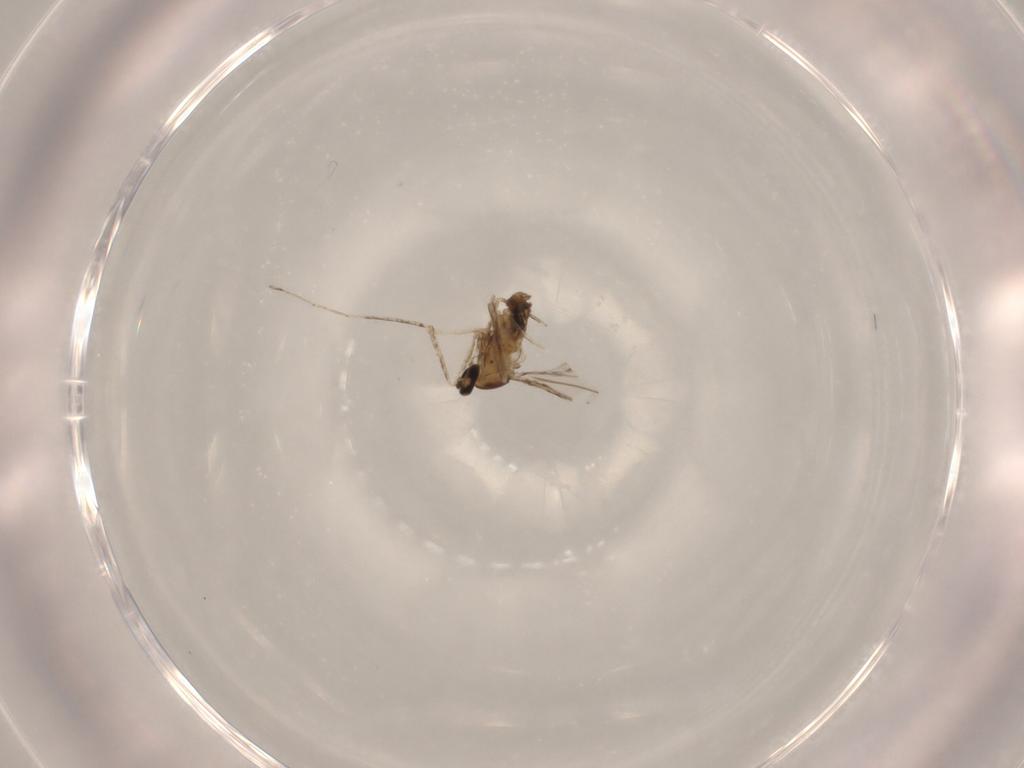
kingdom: Animalia
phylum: Arthropoda
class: Insecta
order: Diptera
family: Cecidomyiidae
